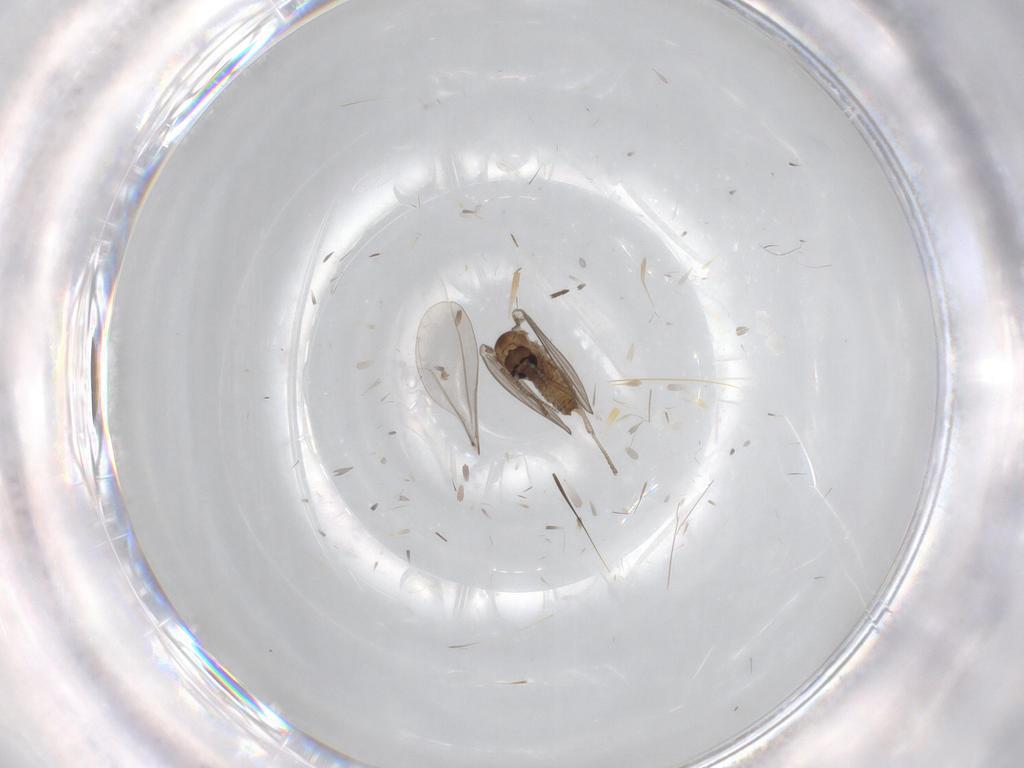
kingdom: Animalia
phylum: Arthropoda
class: Insecta
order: Diptera
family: Psychodidae
